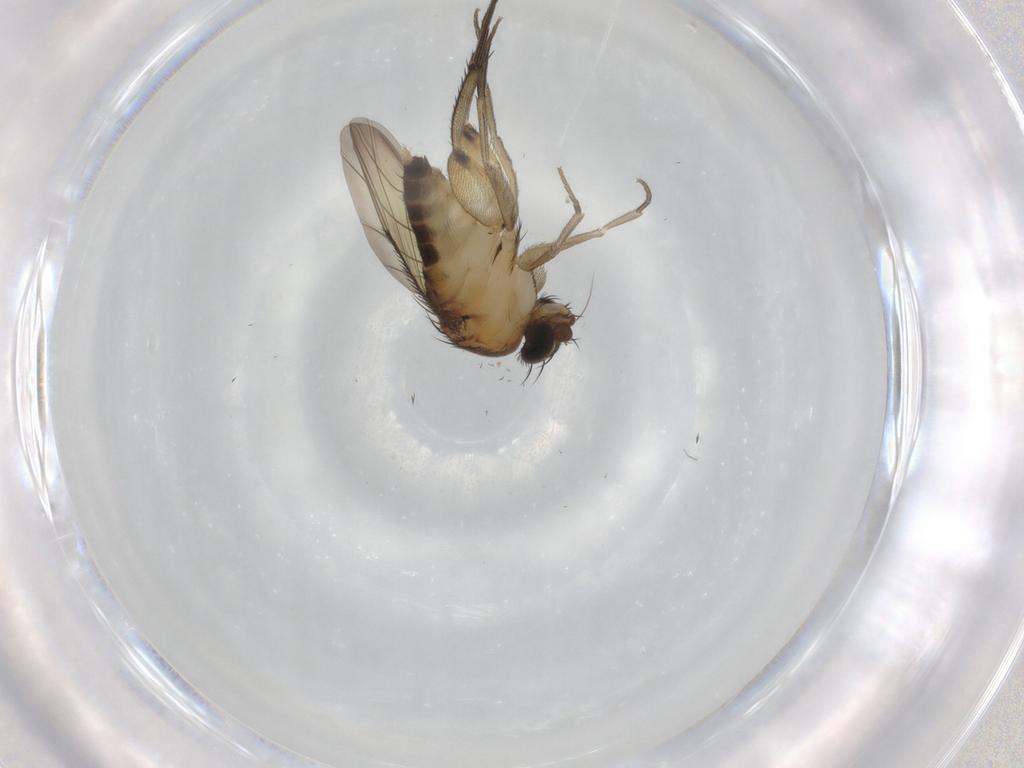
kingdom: Animalia
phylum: Arthropoda
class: Insecta
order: Diptera
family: Phoridae
